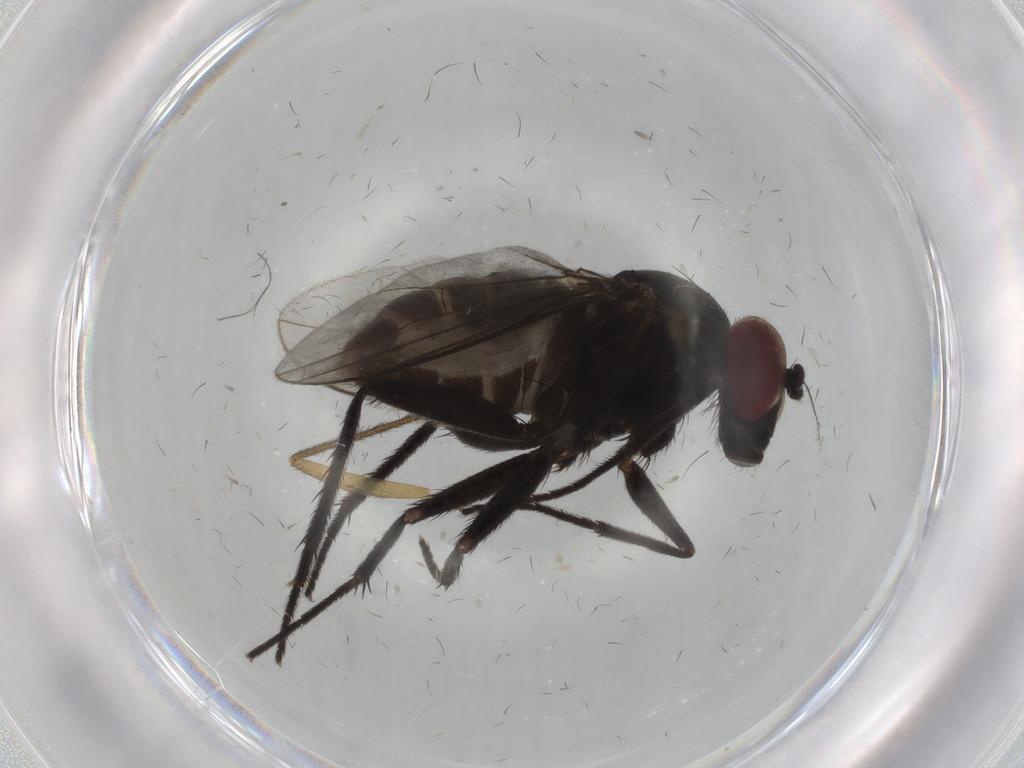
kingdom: Animalia
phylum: Arthropoda
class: Insecta
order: Diptera
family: Dolichopodidae
